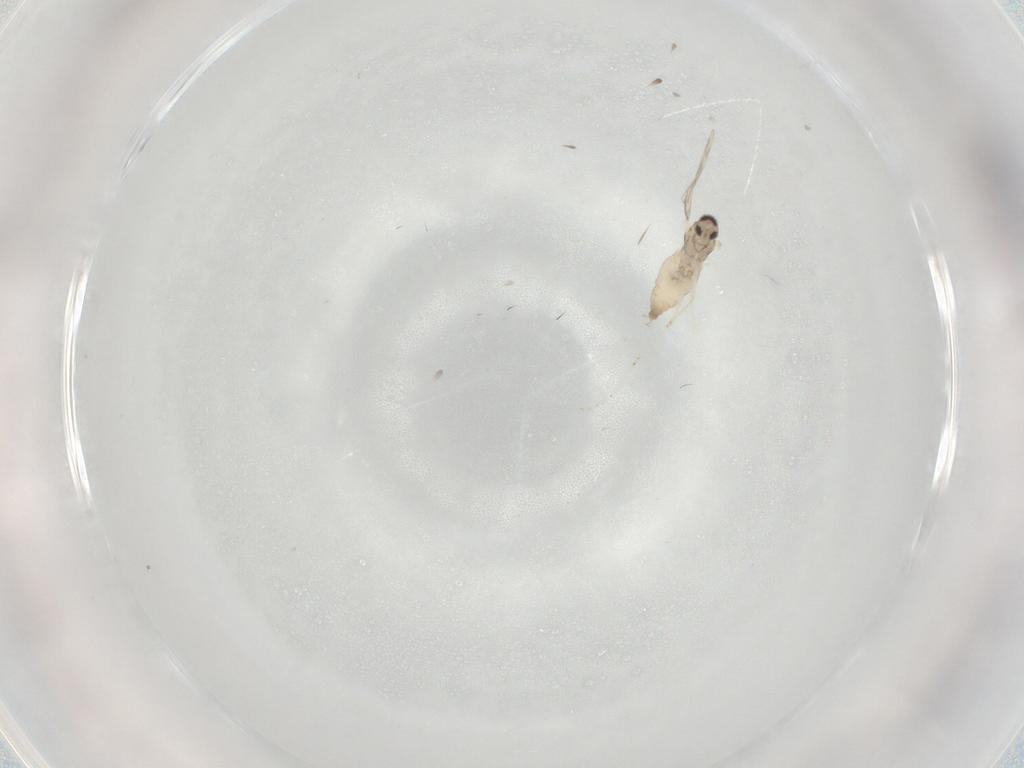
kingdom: Animalia
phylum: Arthropoda
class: Insecta
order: Diptera
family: Cecidomyiidae
